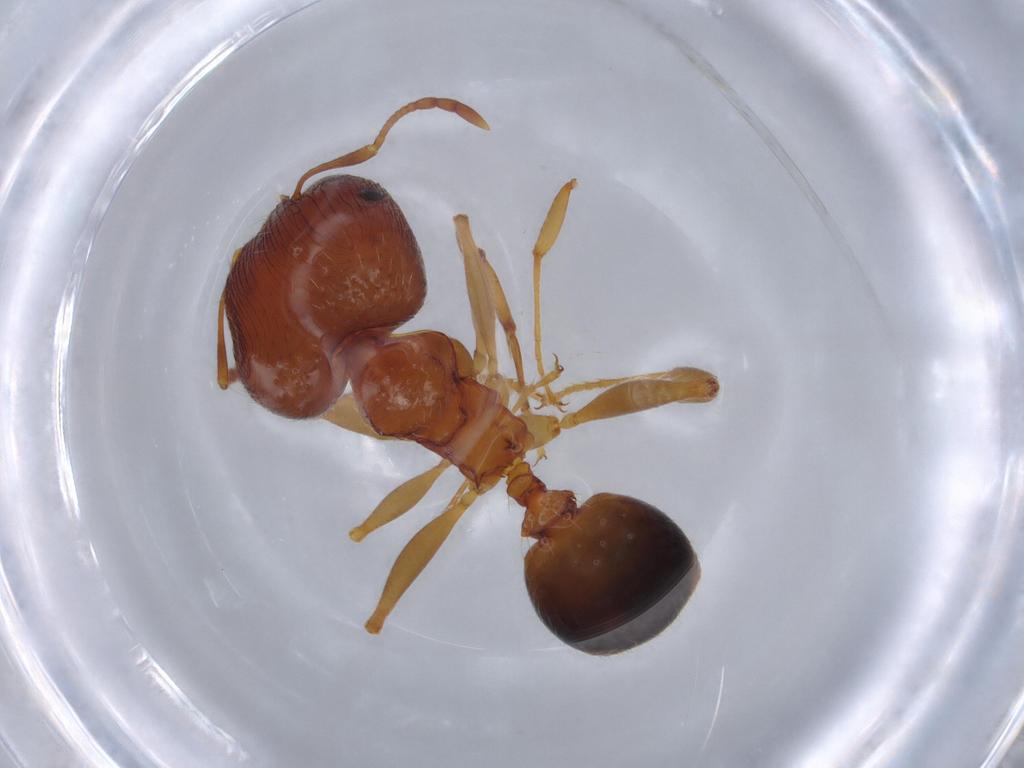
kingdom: Animalia
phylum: Arthropoda
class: Insecta
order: Hymenoptera
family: Formicidae
